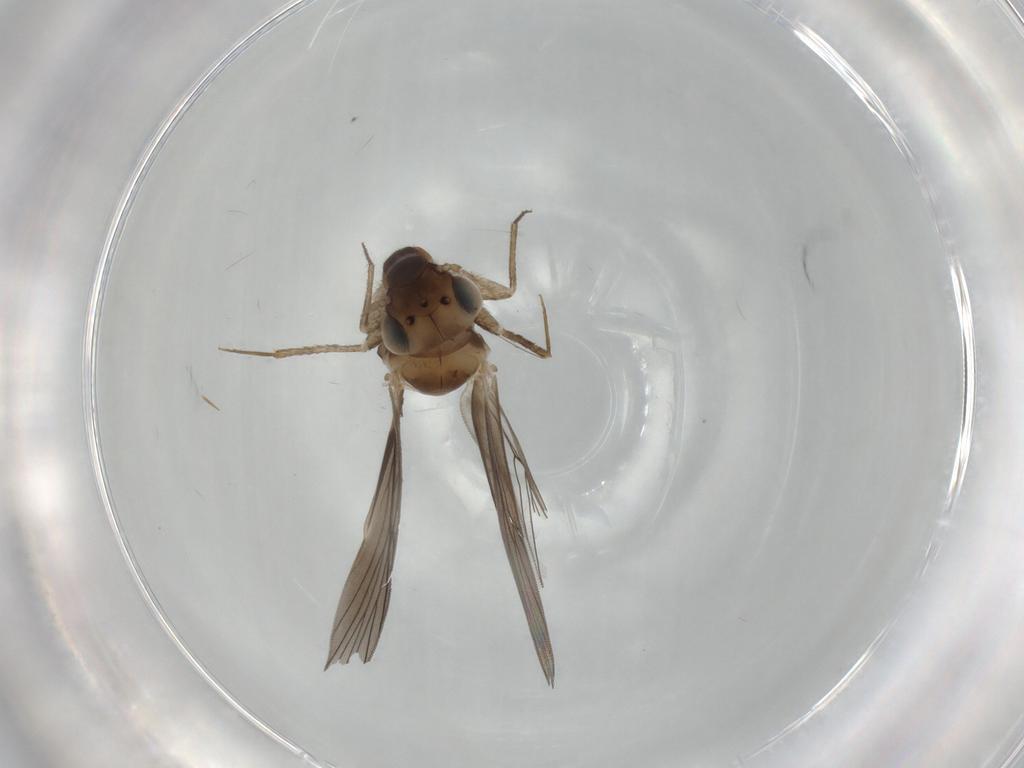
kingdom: Animalia
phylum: Arthropoda
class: Insecta
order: Psocodea
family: Lepidopsocidae
